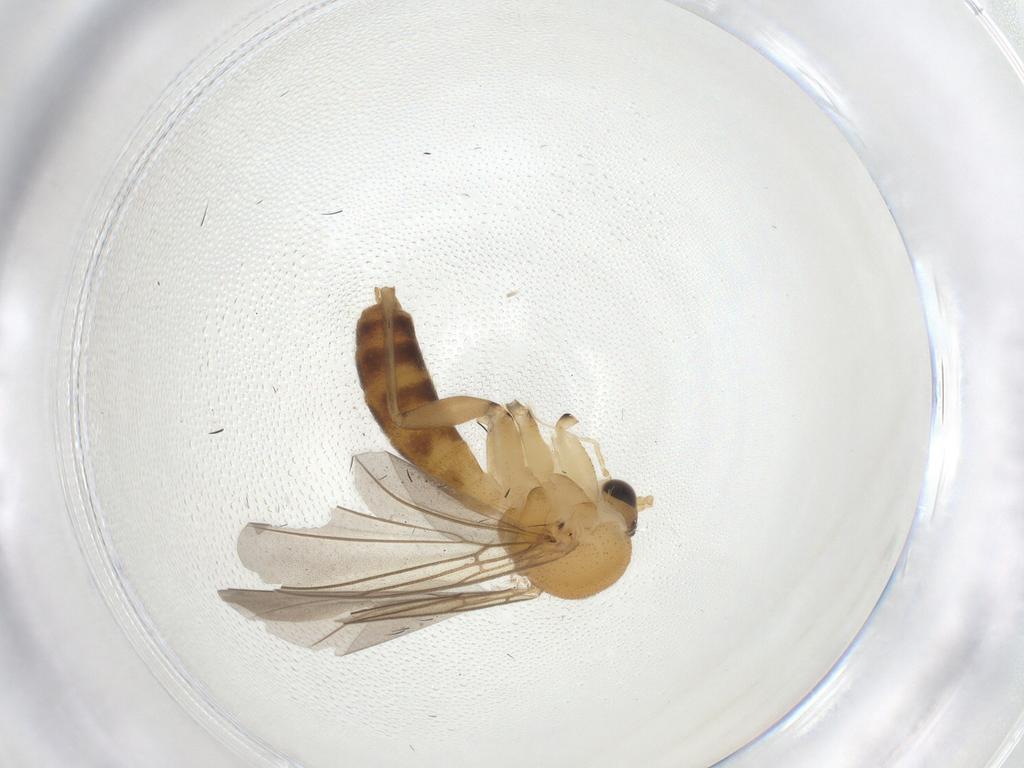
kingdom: Animalia
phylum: Arthropoda
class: Insecta
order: Diptera
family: Mycetophilidae
